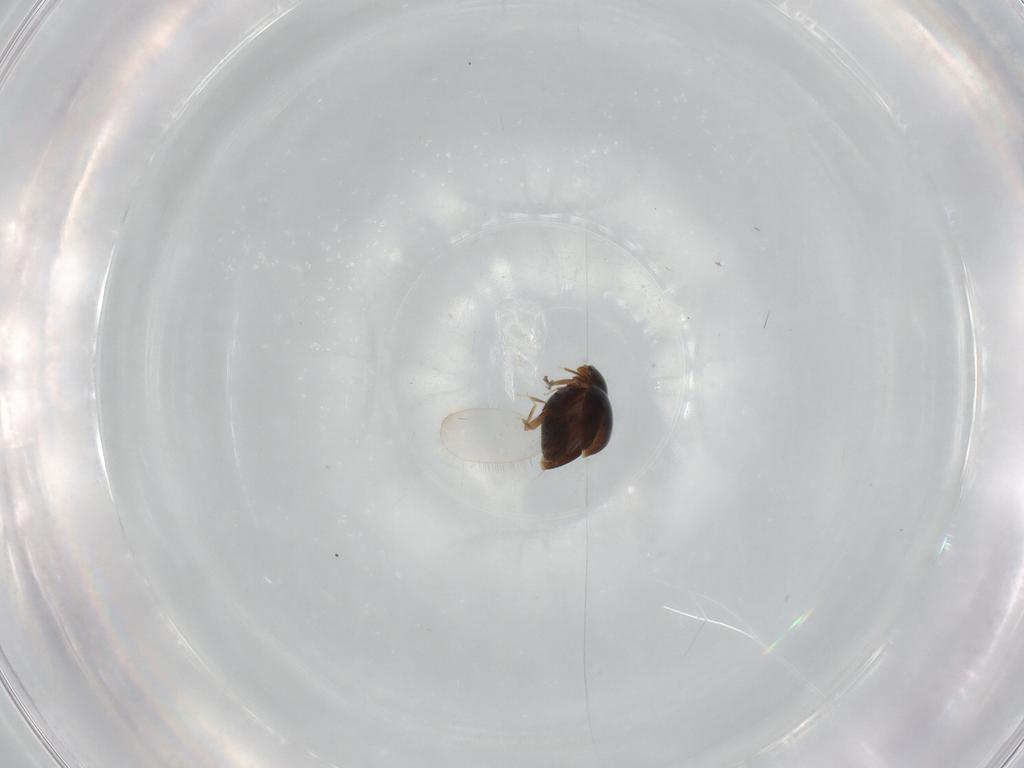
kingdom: Animalia
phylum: Arthropoda
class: Insecta
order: Coleoptera
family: Corylophidae
